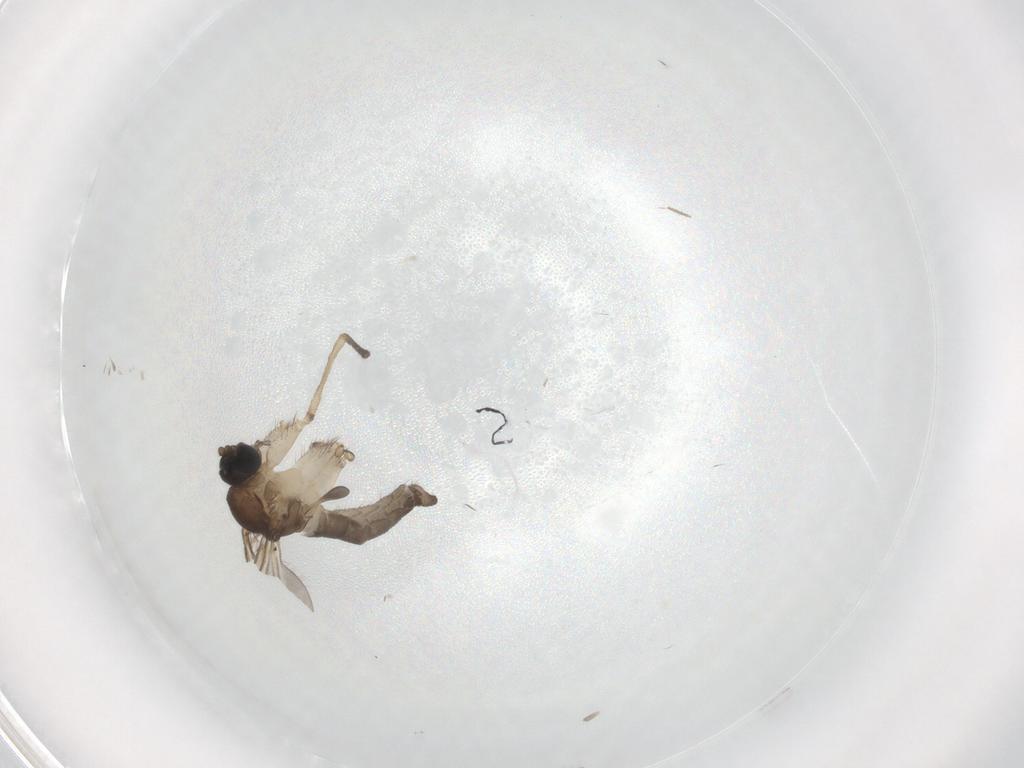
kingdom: Animalia
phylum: Arthropoda
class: Insecta
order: Diptera
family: Sciaridae
